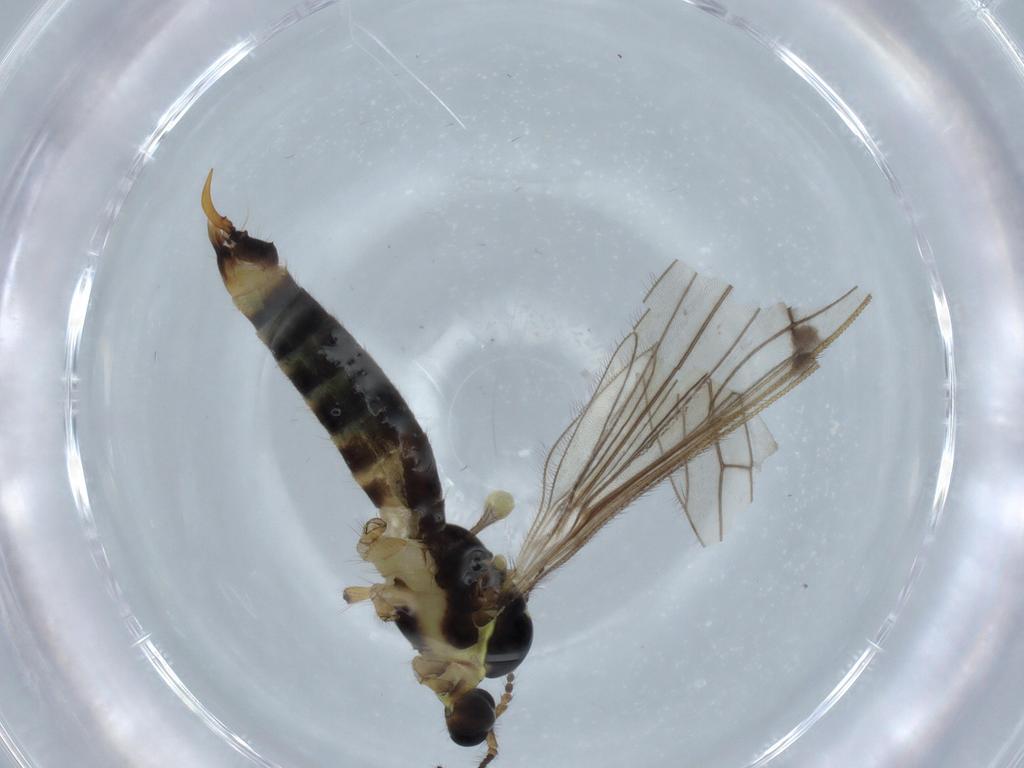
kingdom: Animalia
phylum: Arthropoda
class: Insecta
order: Diptera
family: Limoniidae
